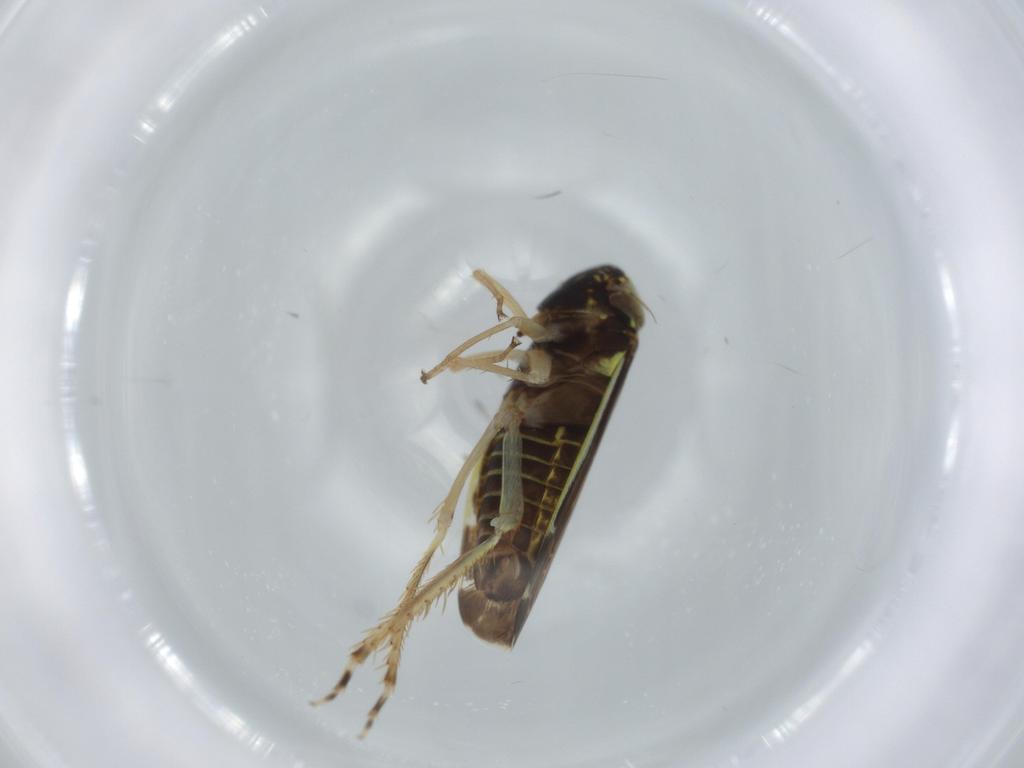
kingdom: Animalia
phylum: Arthropoda
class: Insecta
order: Hemiptera
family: Cicadellidae
